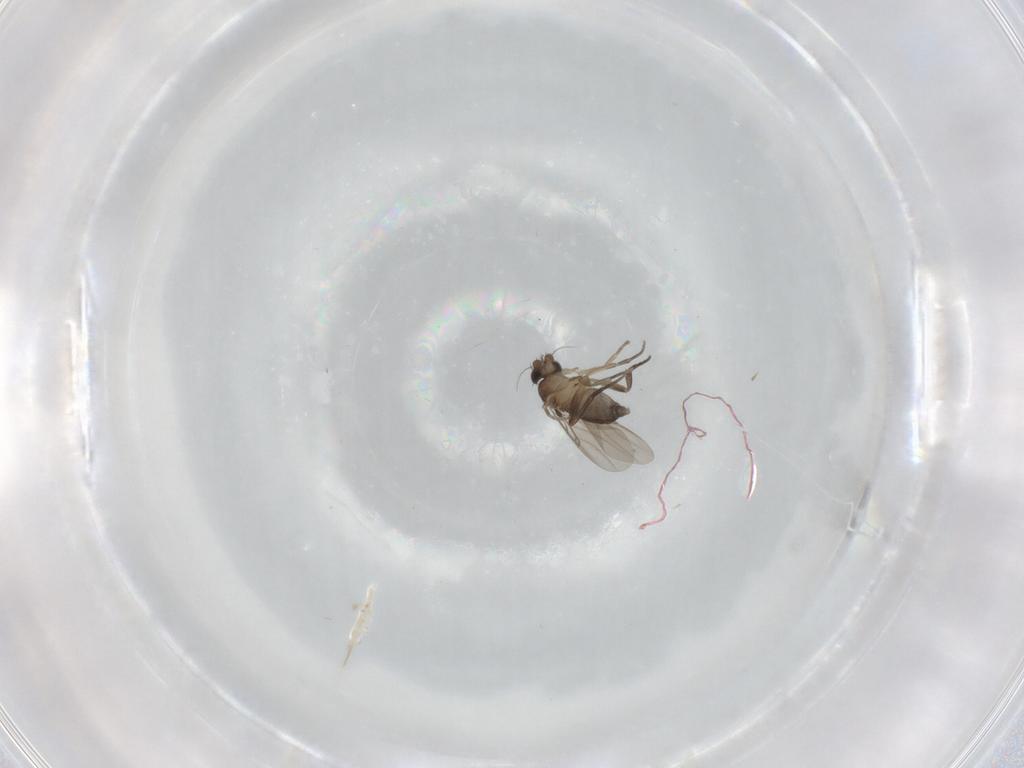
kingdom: Animalia
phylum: Arthropoda
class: Insecta
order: Diptera
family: Phoridae
